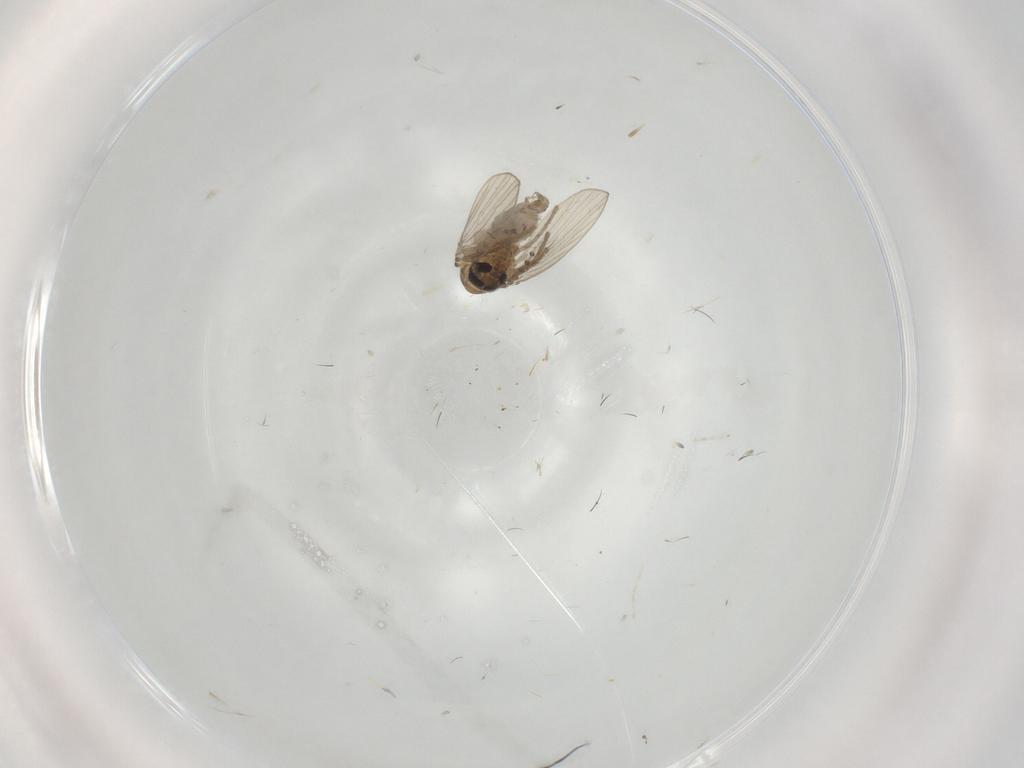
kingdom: Animalia
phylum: Arthropoda
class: Insecta
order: Diptera
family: Psychodidae
